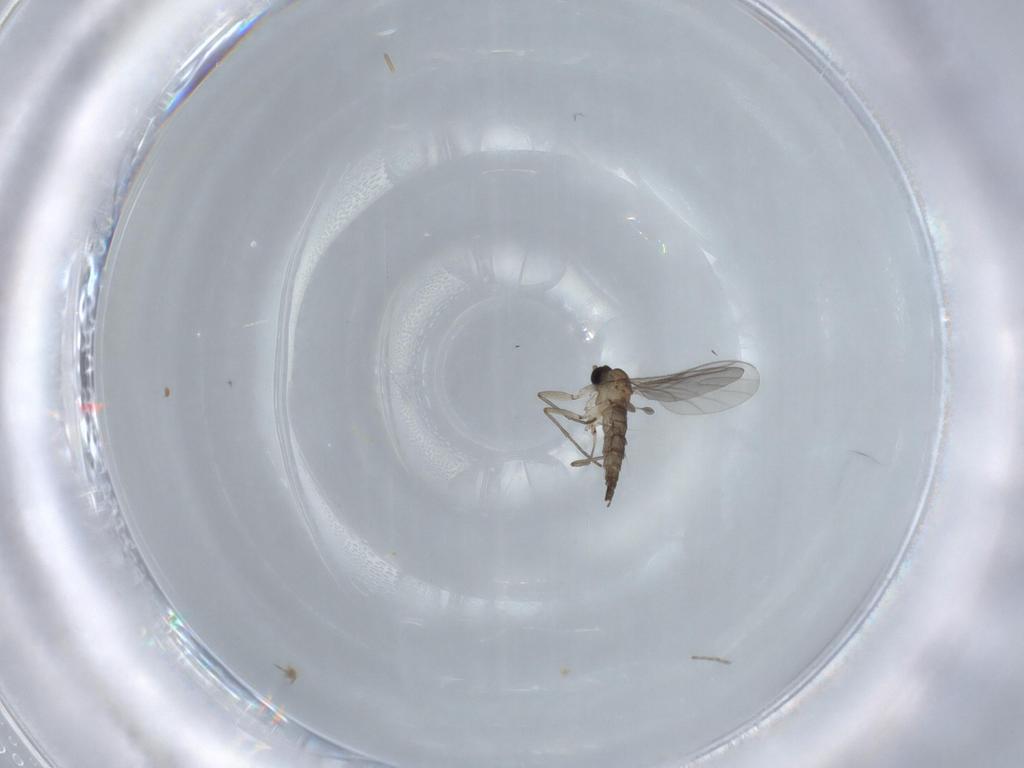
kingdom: Animalia
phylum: Arthropoda
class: Insecta
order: Diptera
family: Sciaridae
